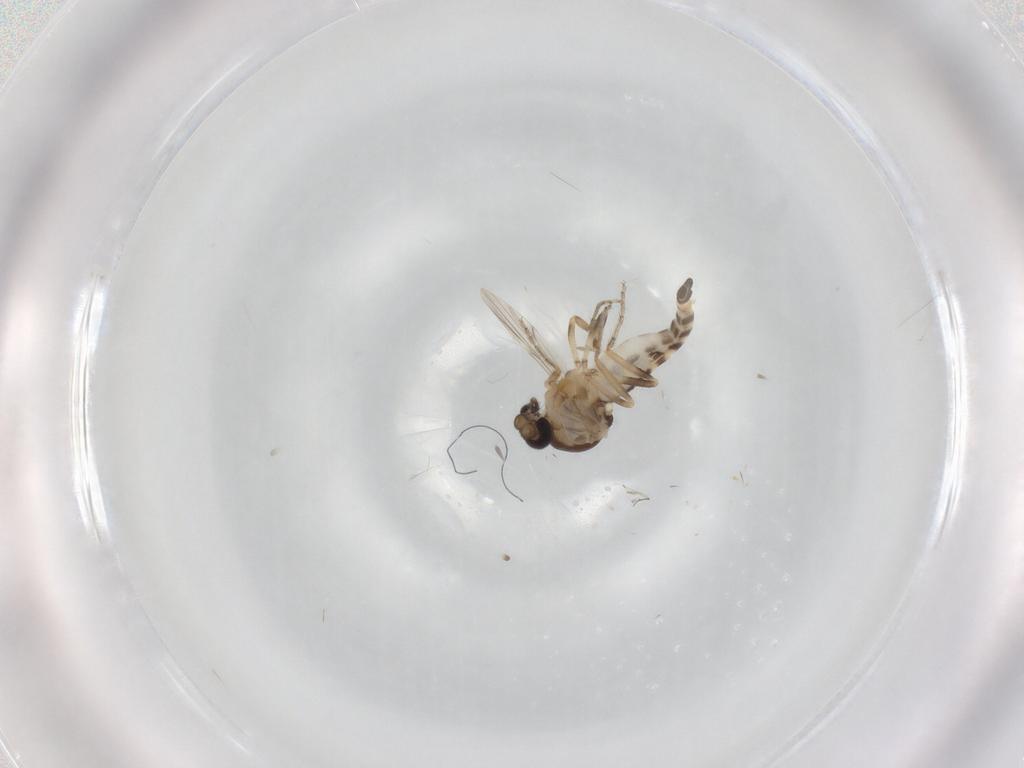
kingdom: Animalia
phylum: Arthropoda
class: Insecta
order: Diptera
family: Ceratopogonidae
